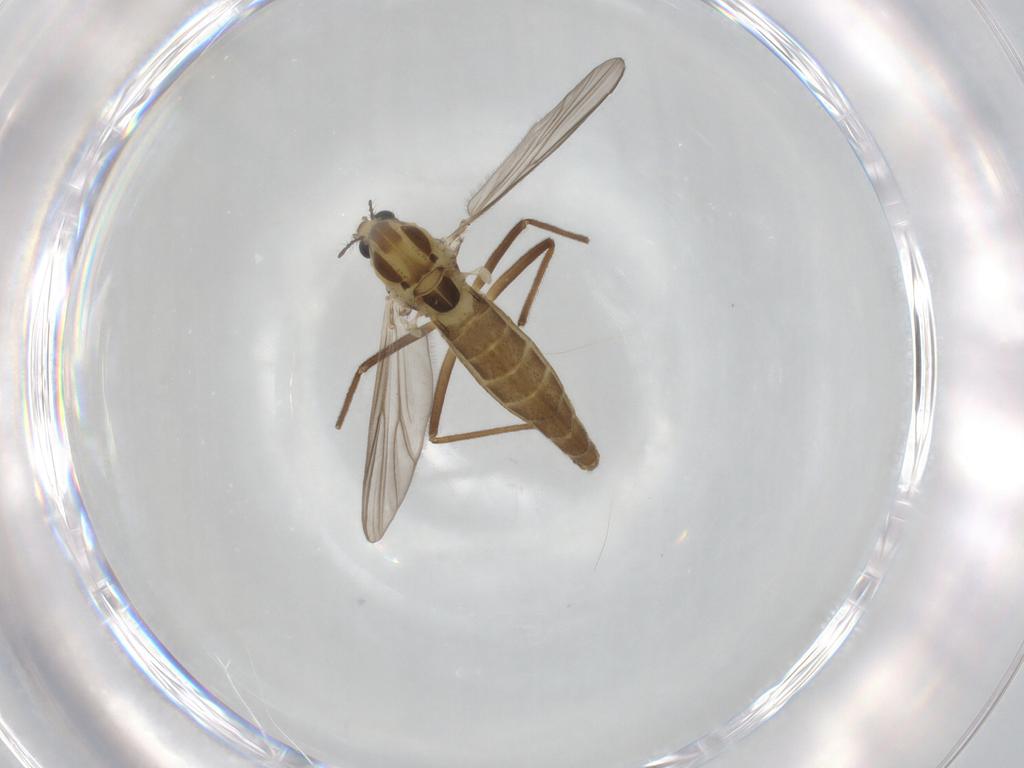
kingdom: Animalia
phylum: Arthropoda
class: Insecta
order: Diptera
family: Chironomidae
